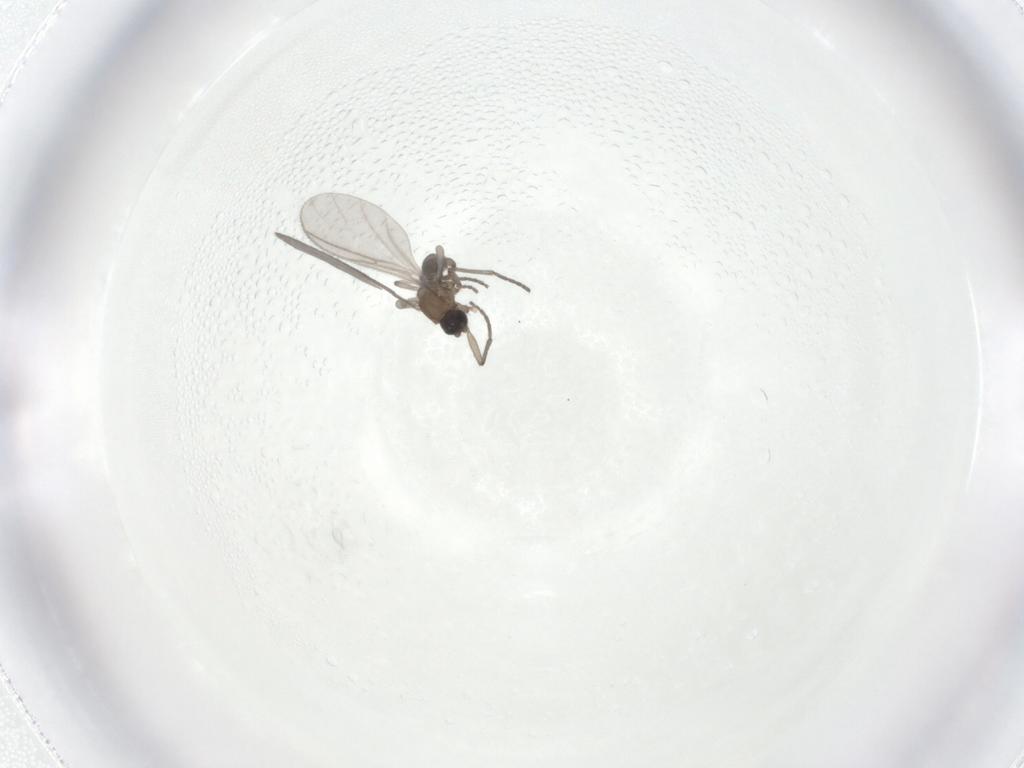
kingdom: Animalia
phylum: Arthropoda
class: Insecta
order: Diptera
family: Sciaridae
